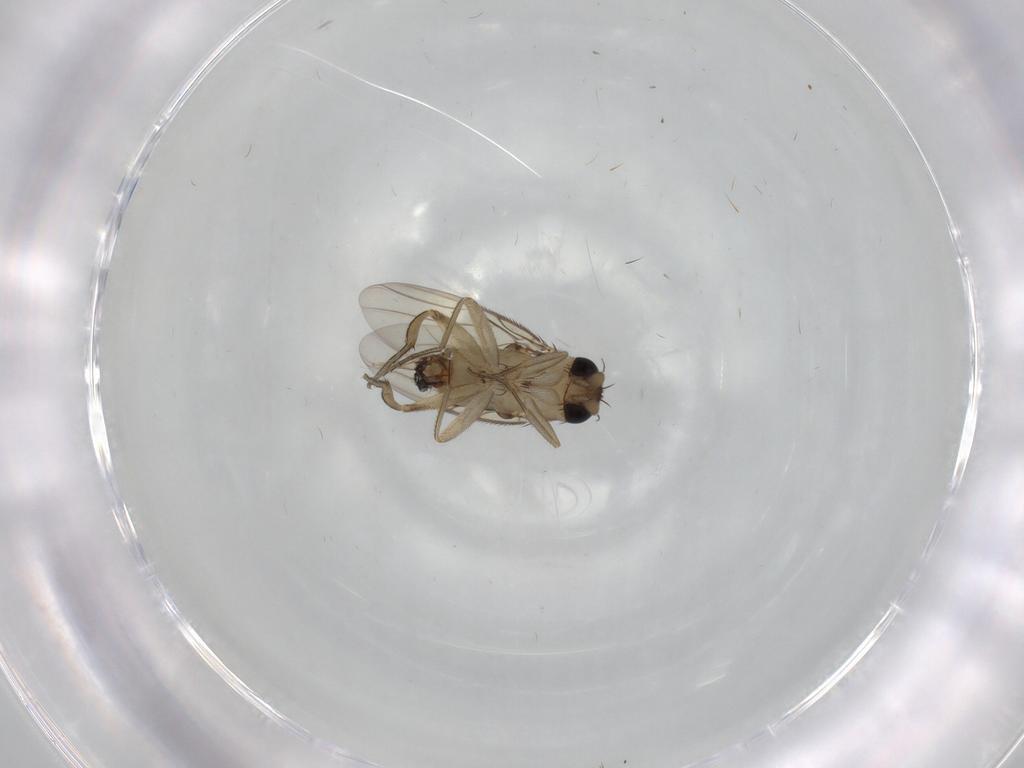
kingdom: Animalia
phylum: Arthropoda
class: Insecta
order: Diptera
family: Phoridae
